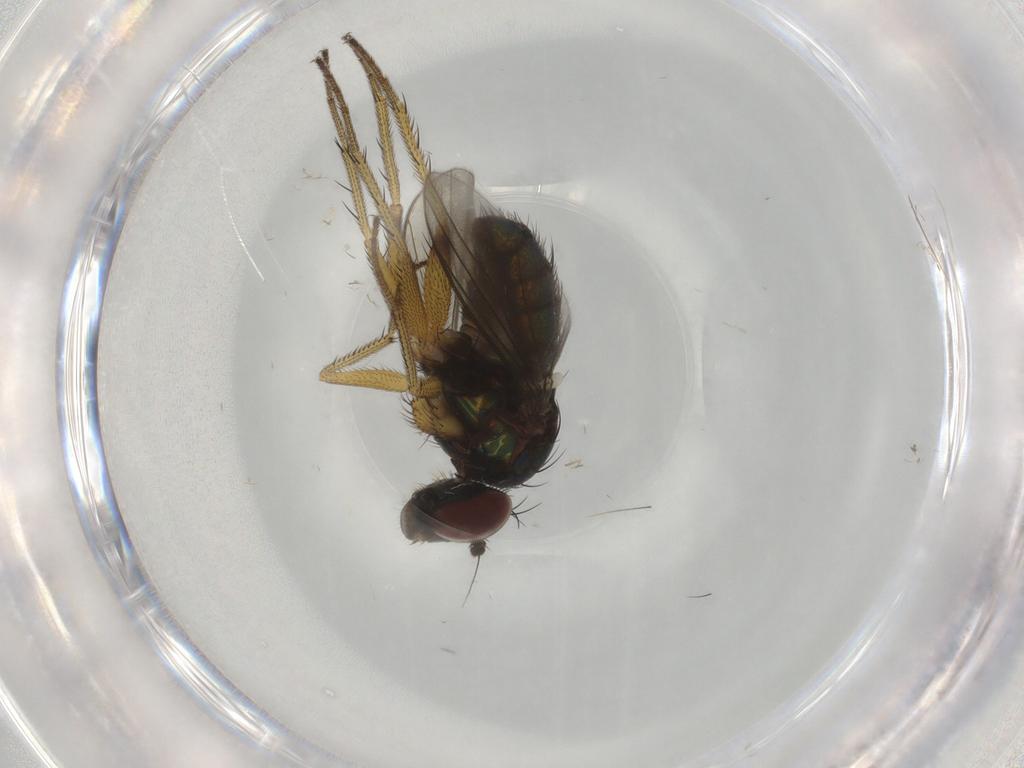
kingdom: Animalia
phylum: Arthropoda
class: Insecta
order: Diptera
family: Dolichopodidae
